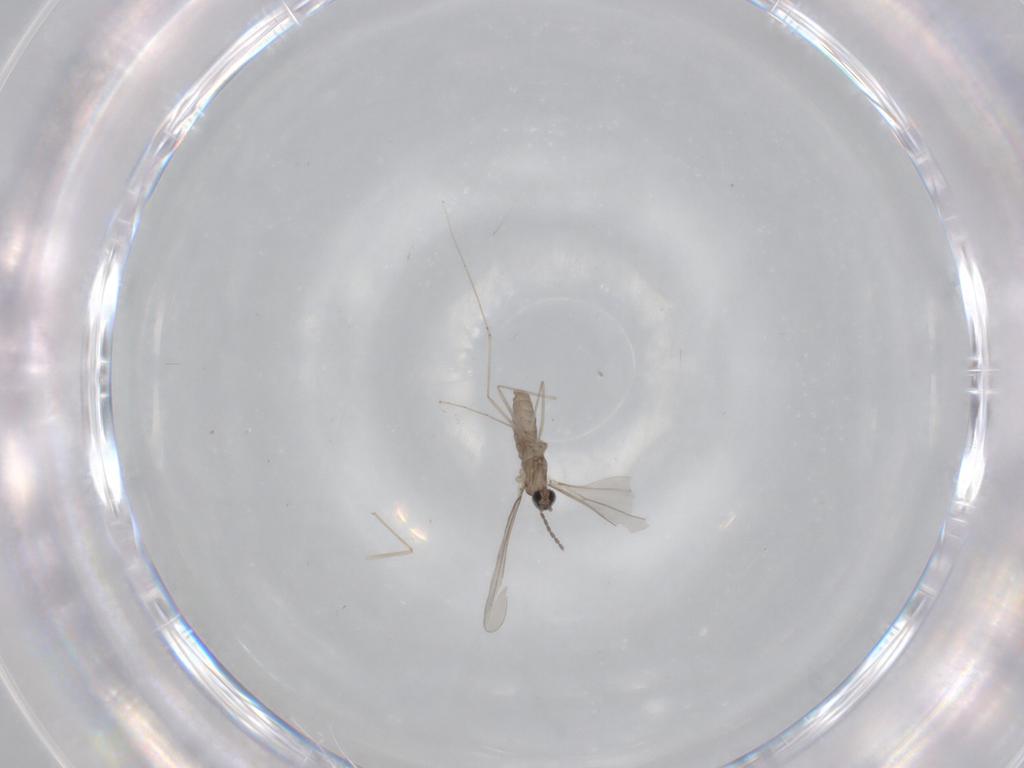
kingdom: Animalia
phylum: Arthropoda
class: Insecta
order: Diptera
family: Cecidomyiidae
